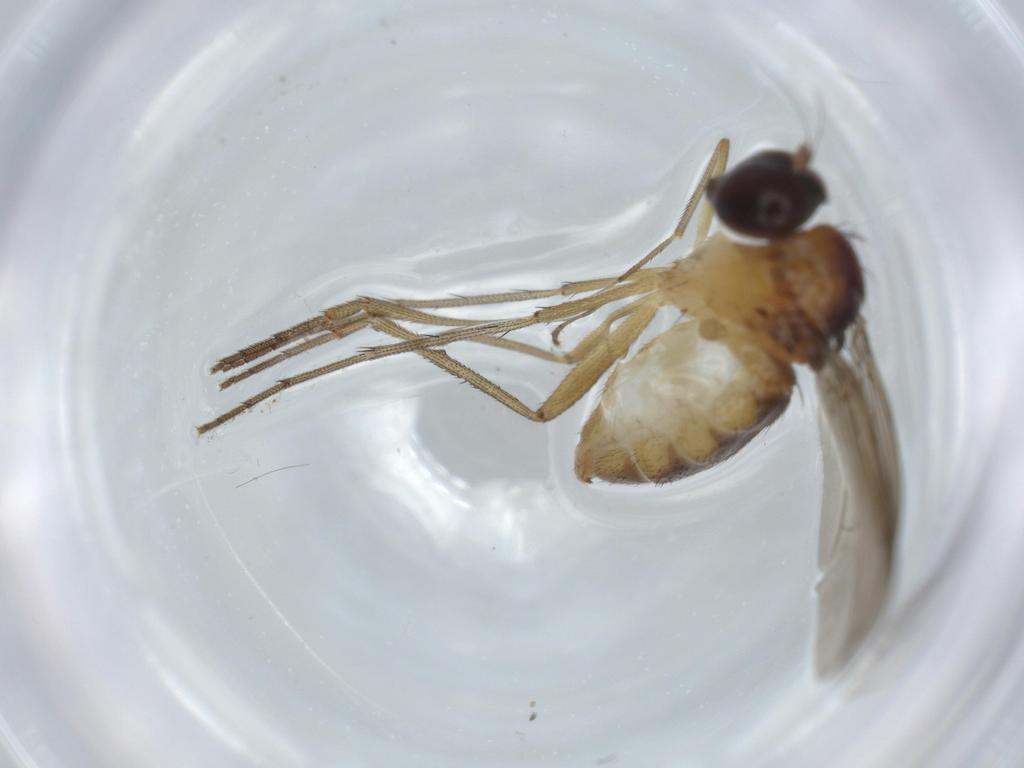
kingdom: Animalia
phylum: Arthropoda
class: Insecta
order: Diptera
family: Dolichopodidae
